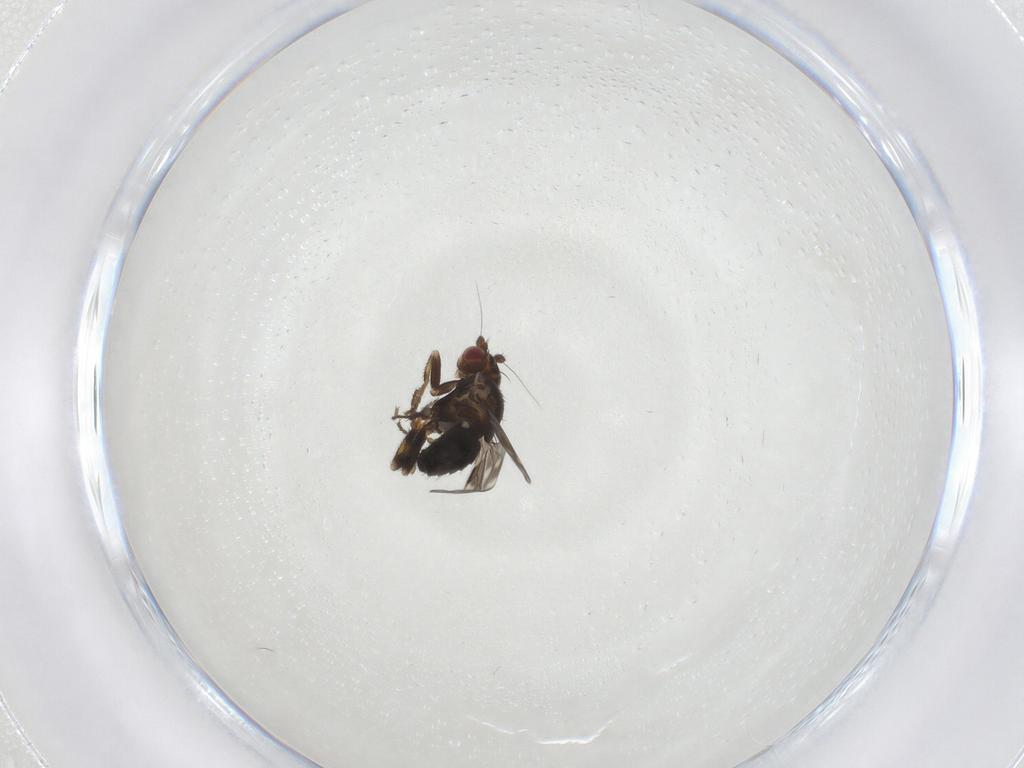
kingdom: Animalia
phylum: Arthropoda
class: Insecta
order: Diptera
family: Sphaeroceridae
